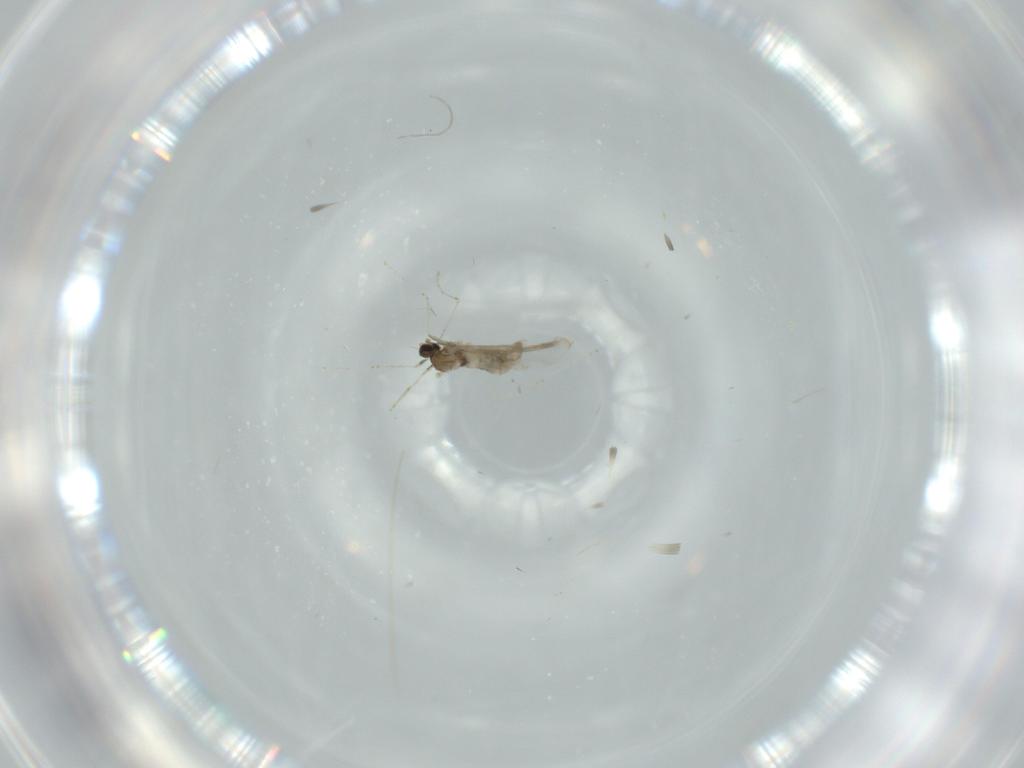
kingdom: Animalia
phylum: Arthropoda
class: Insecta
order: Diptera
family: Cecidomyiidae
